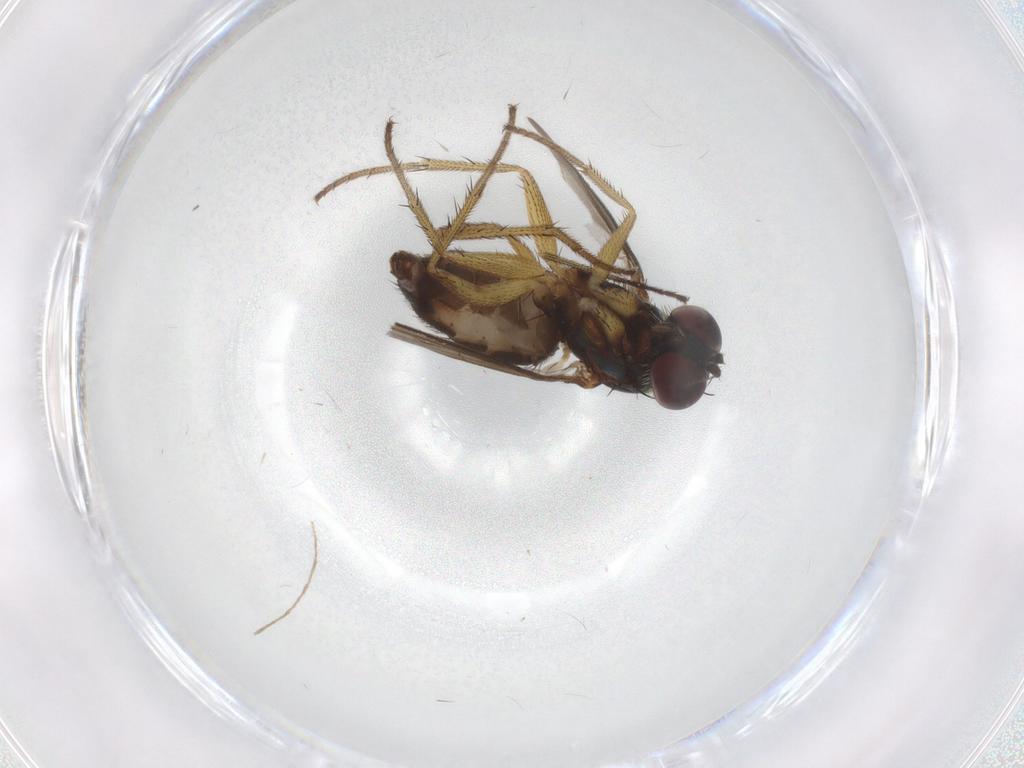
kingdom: Animalia
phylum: Arthropoda
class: Insecta
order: Diptera
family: Dolichopodidae
